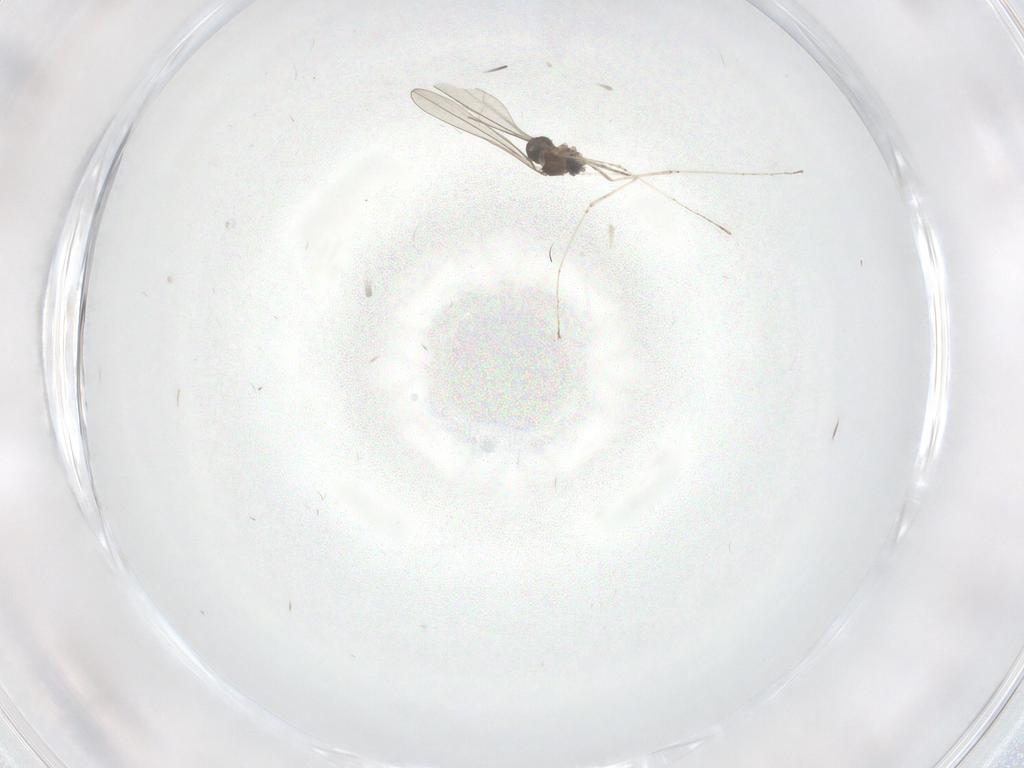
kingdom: Animalia
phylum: Arthropoda
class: Insecta
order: Diptera
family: Cecidomyiidae
